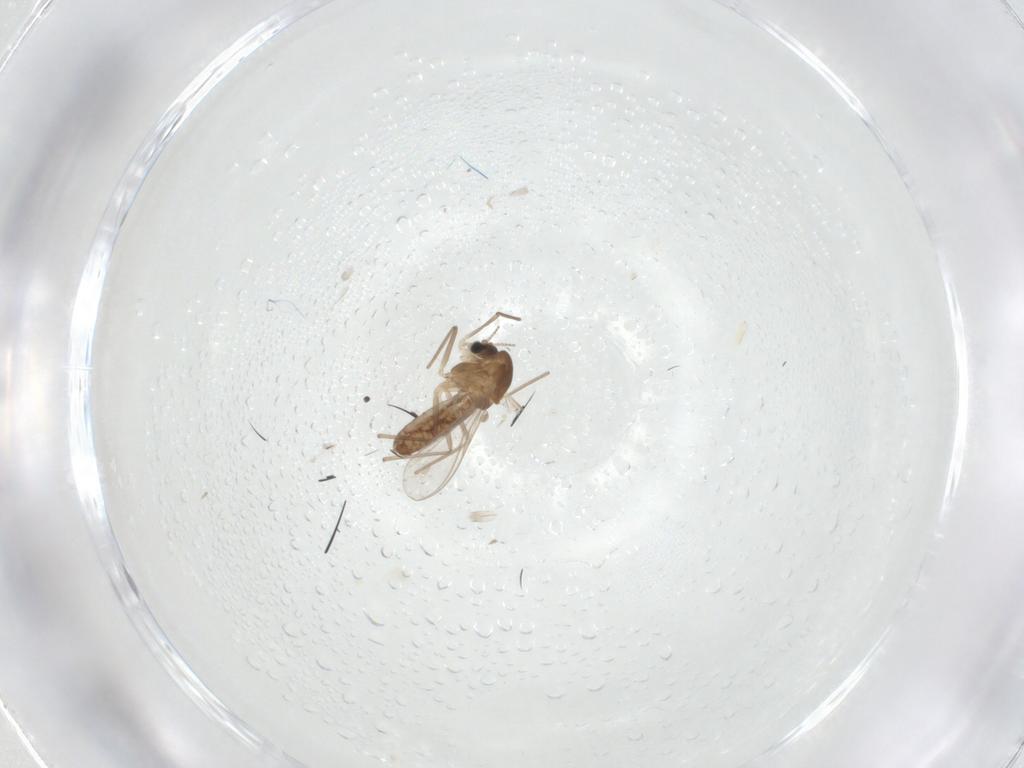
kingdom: Animalia
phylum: Arthropoda
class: Insecta
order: Diptera
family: Chironomidae
